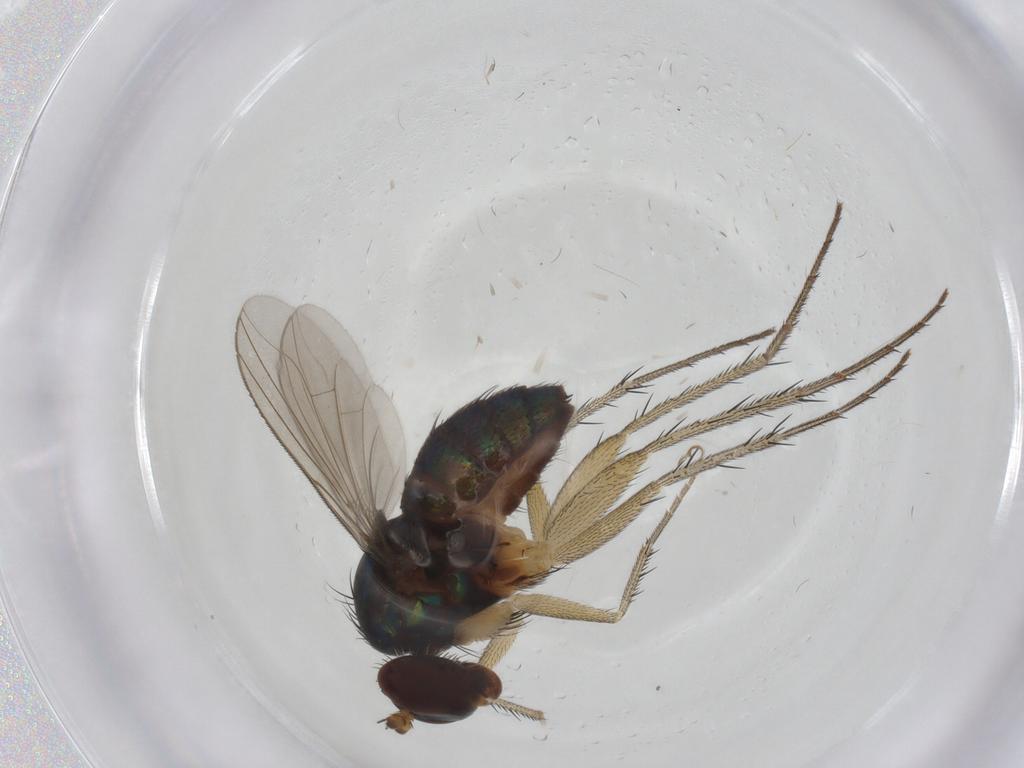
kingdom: Animalia
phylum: Arthropoda
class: Insecta
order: Diptera
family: Dolichopodidae
